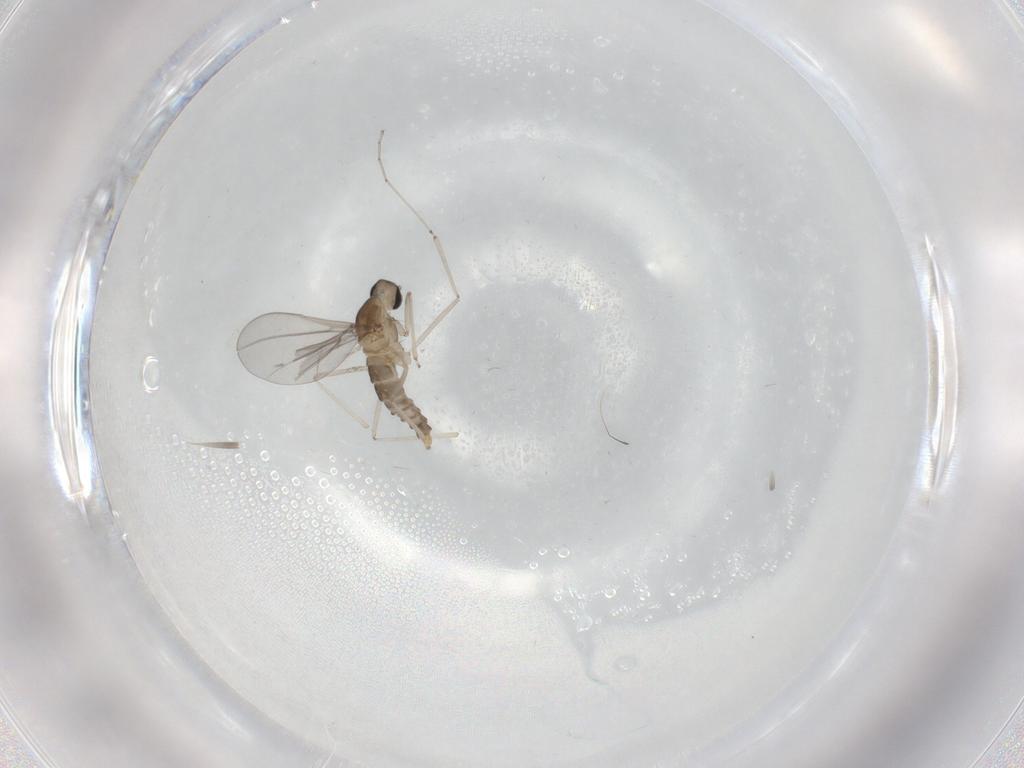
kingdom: Animalia
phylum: Arthropoda
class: Insecta
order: Diptera
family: Cecidomyiidae
